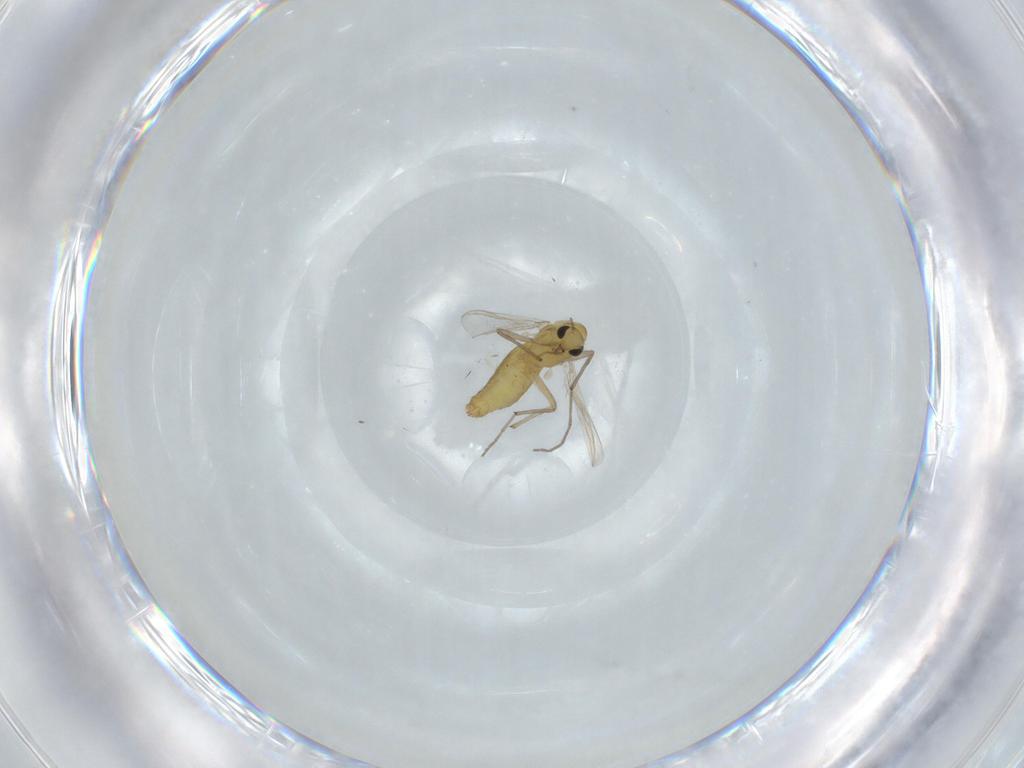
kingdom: Animalia
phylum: Arthropoda
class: Insecta
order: Diptera
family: Chironomidae
